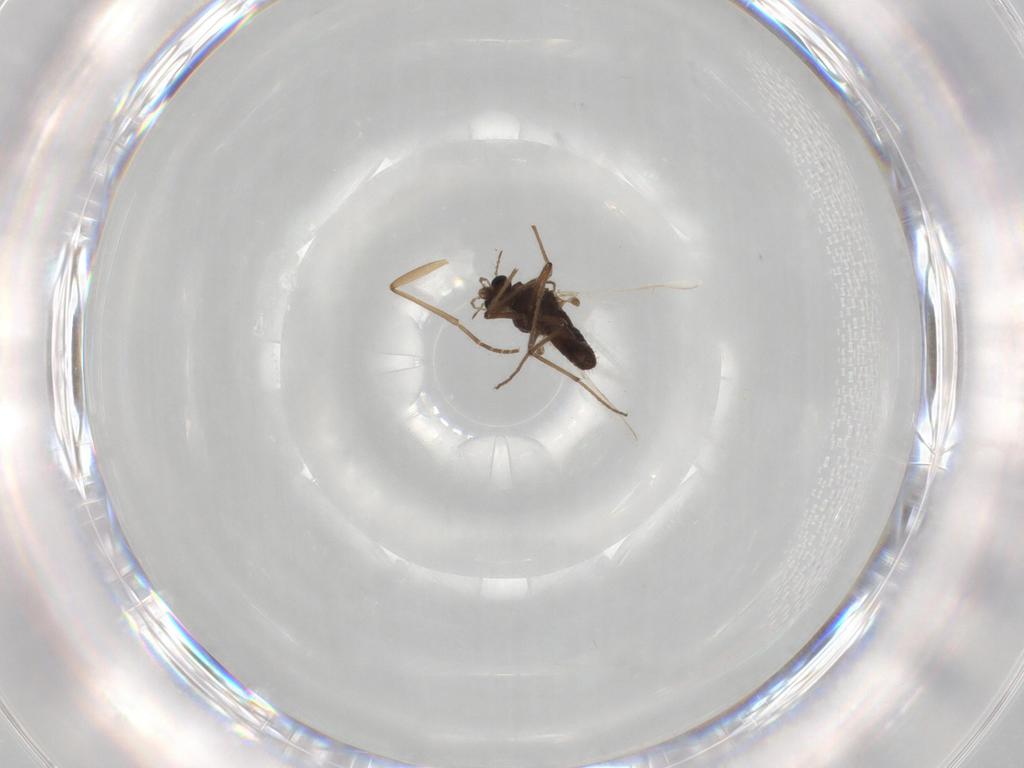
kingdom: Animalia
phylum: Arthropoda
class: Insecta
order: Diptera
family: Sciaridae
